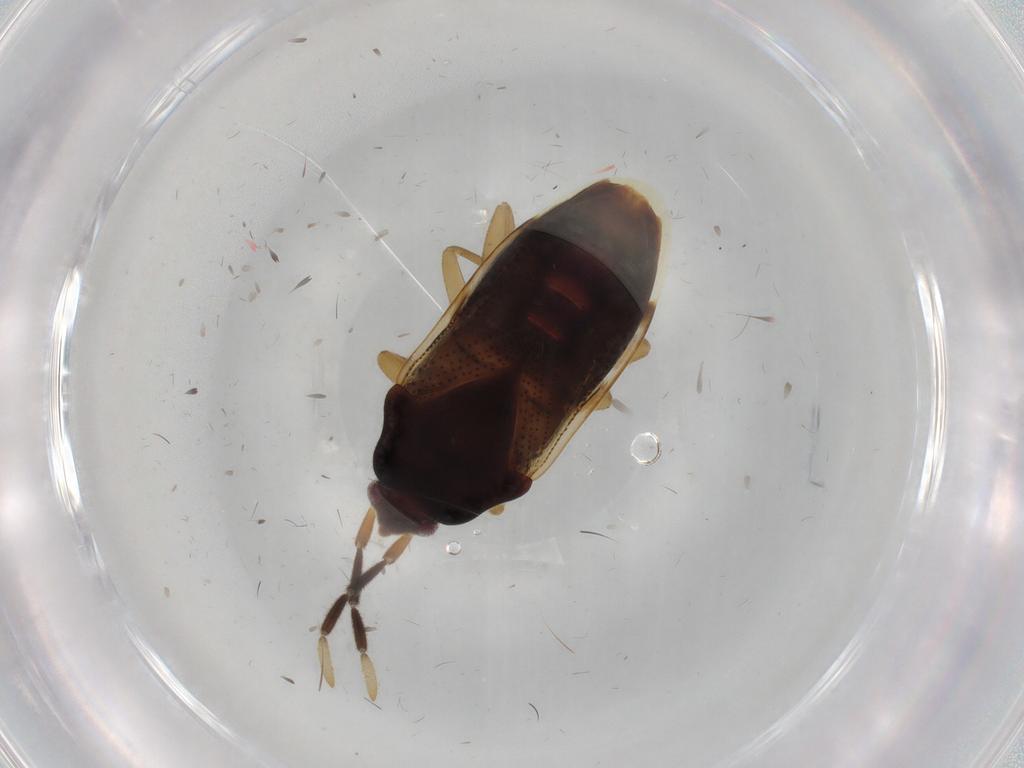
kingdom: Animalia
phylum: Arthropoda
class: Insecta
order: Hemiptera
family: Rhyparochromidae
